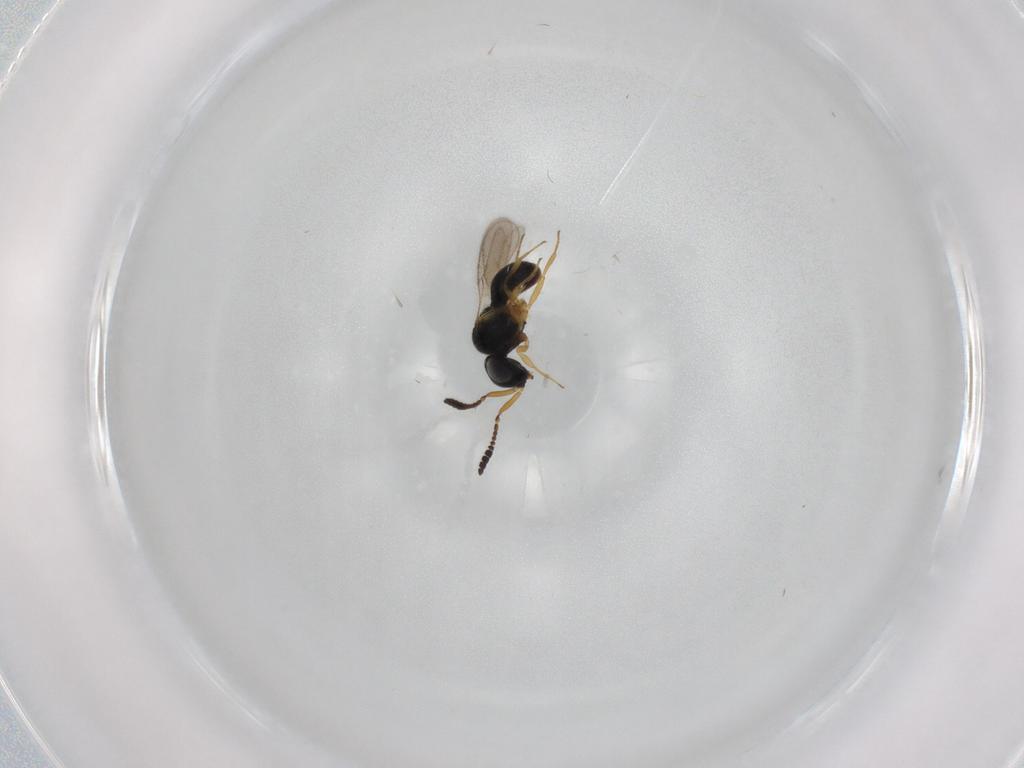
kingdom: Animalia
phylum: Arthropoda
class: Insecta
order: Hymenoptera
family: Scelionidae
